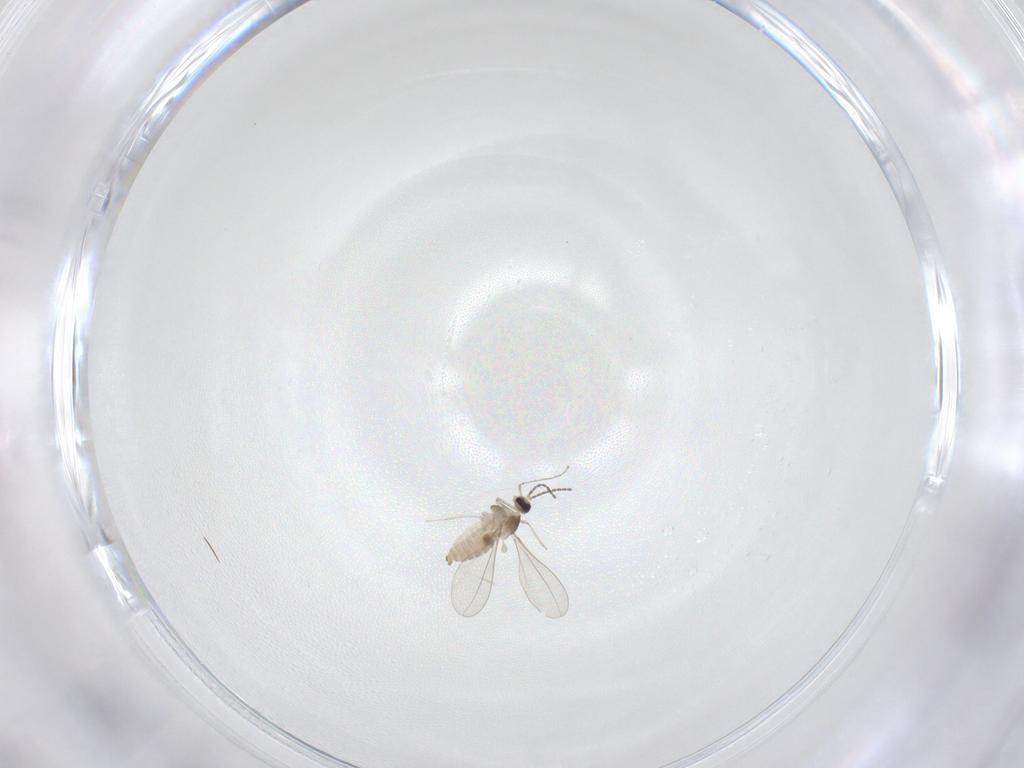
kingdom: Animalia
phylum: Arthropoda
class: Insecta
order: Diptera
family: Cecidomyiidae
